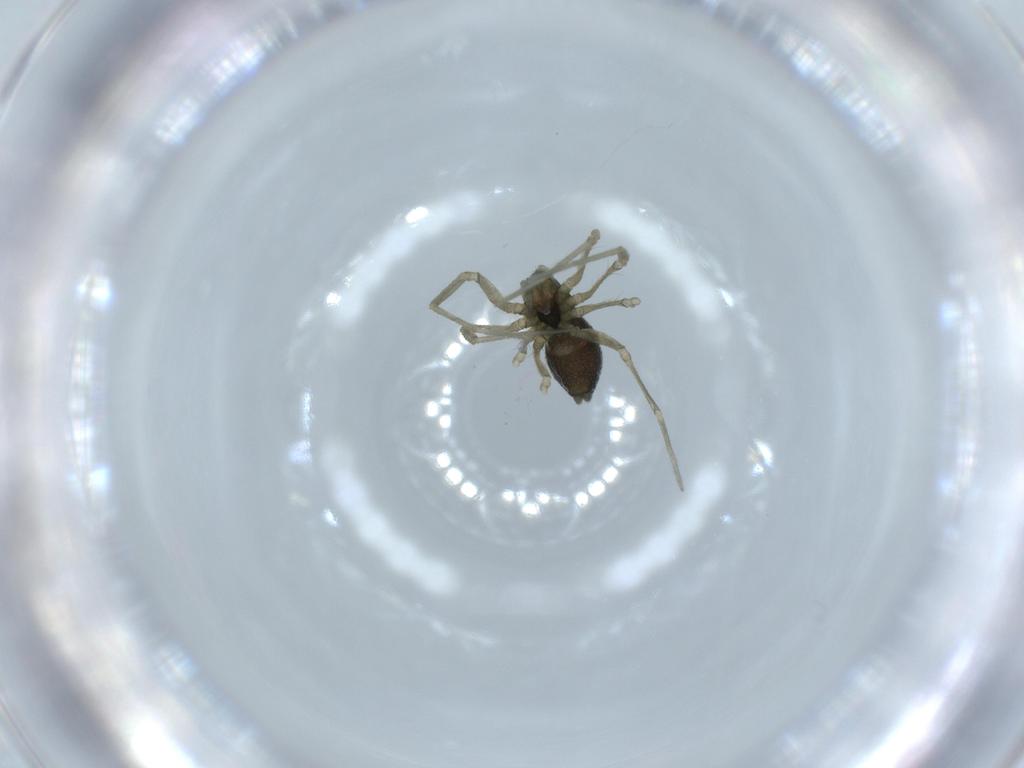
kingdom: Animalia
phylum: Arthropoda
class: Arachnida
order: Araneae
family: Linyphiidae
